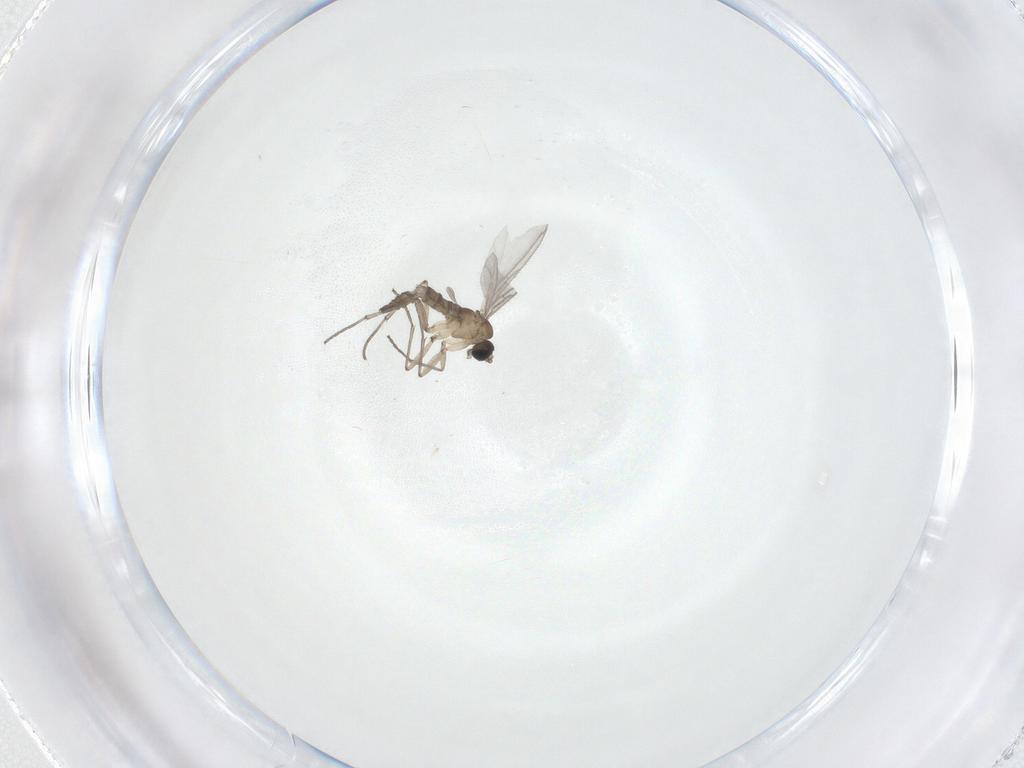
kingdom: Animalia
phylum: Arthropoda
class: Insecta
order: Diptera
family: Sciaridae
